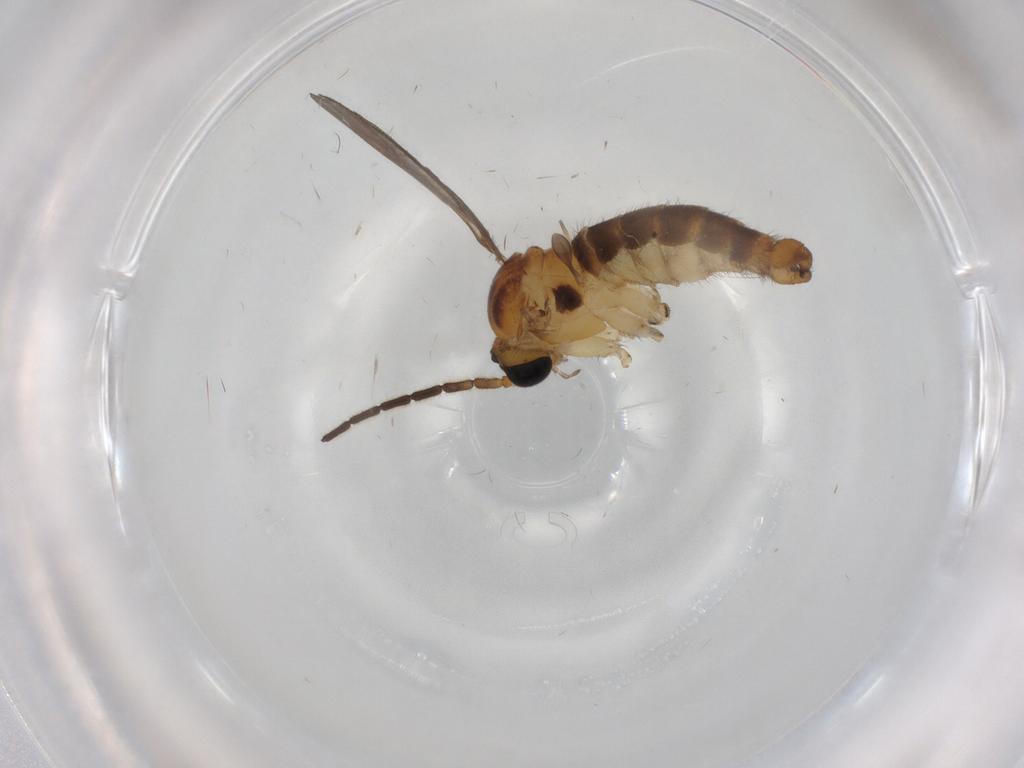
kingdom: Animalia
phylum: Arthropoda
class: Insecta
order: Diptera
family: Sciaridae
